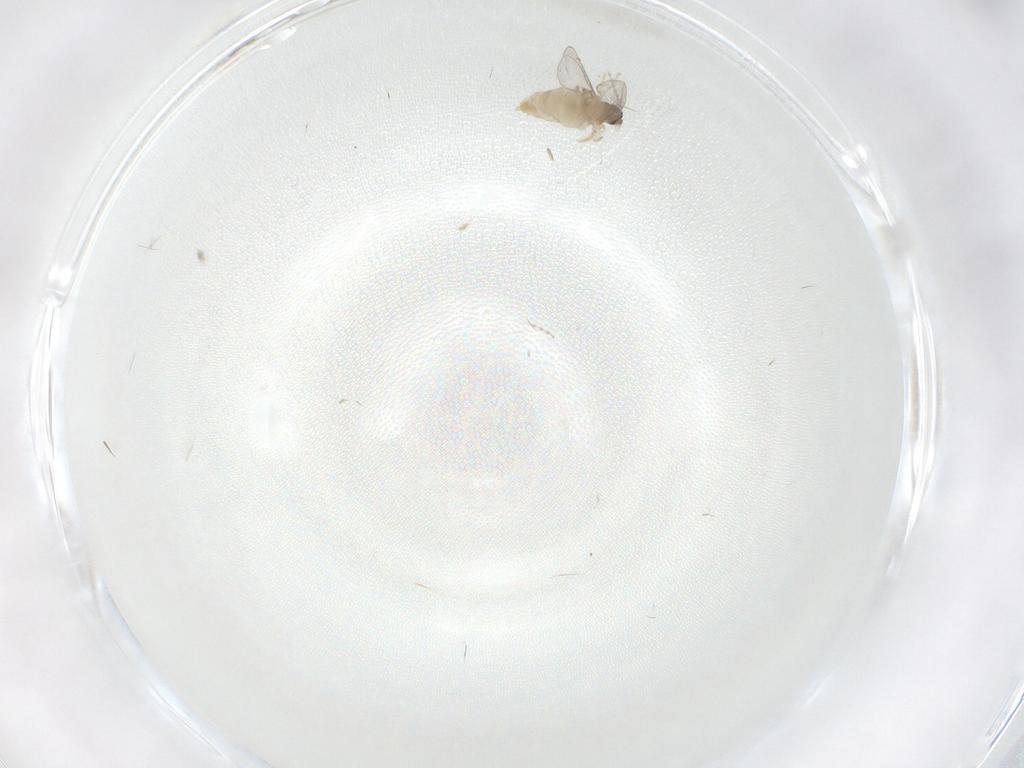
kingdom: Animalia
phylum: Arthropoda
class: Insecta
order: Diptera
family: Cecidomyiidae
